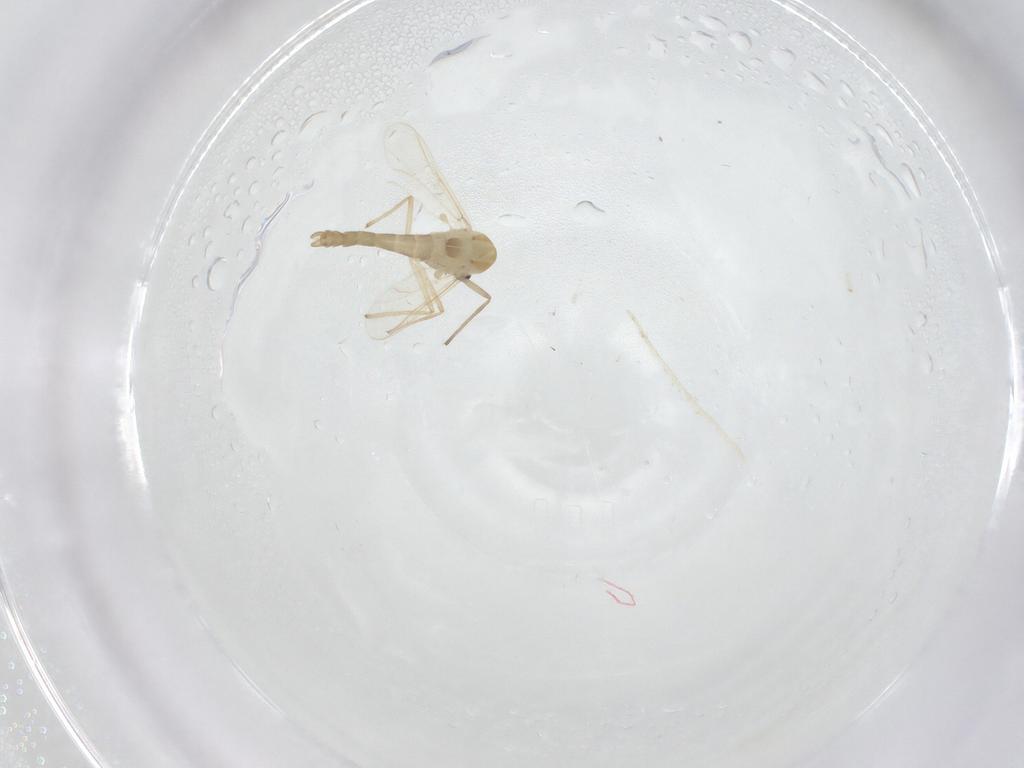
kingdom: Animalia
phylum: Arthropoda
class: Insecta
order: Diptera
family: Chironomidae
